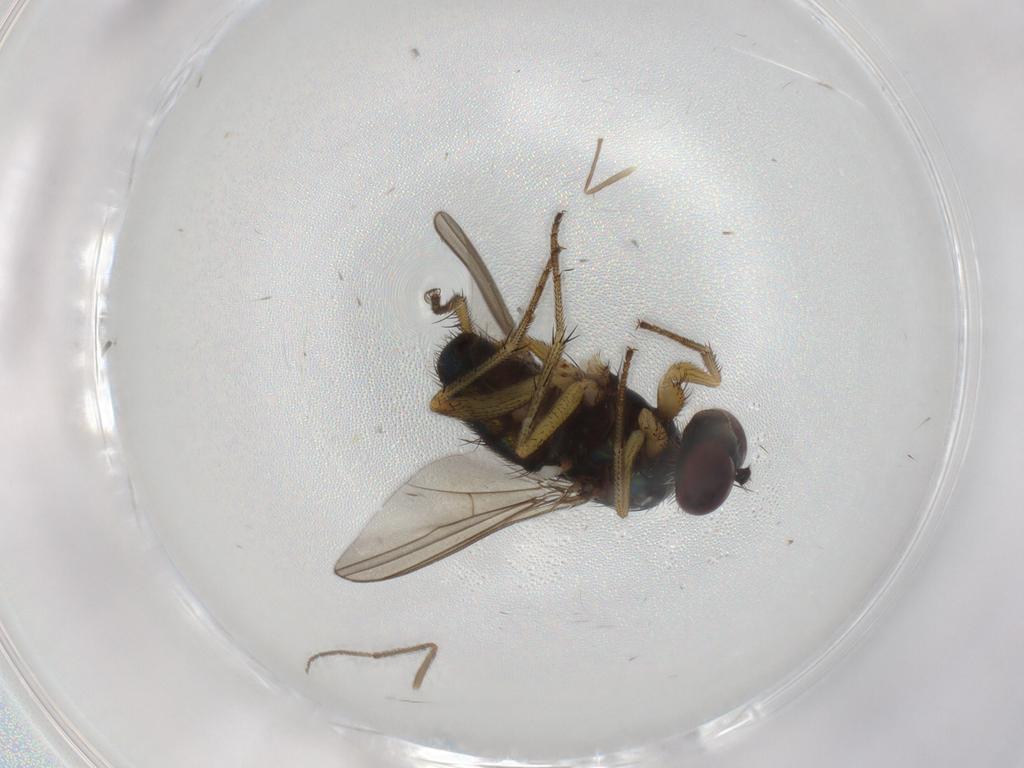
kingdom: Animalia
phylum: Arthropoda
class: Insecta
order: Diptera
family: Dolichopodidae
